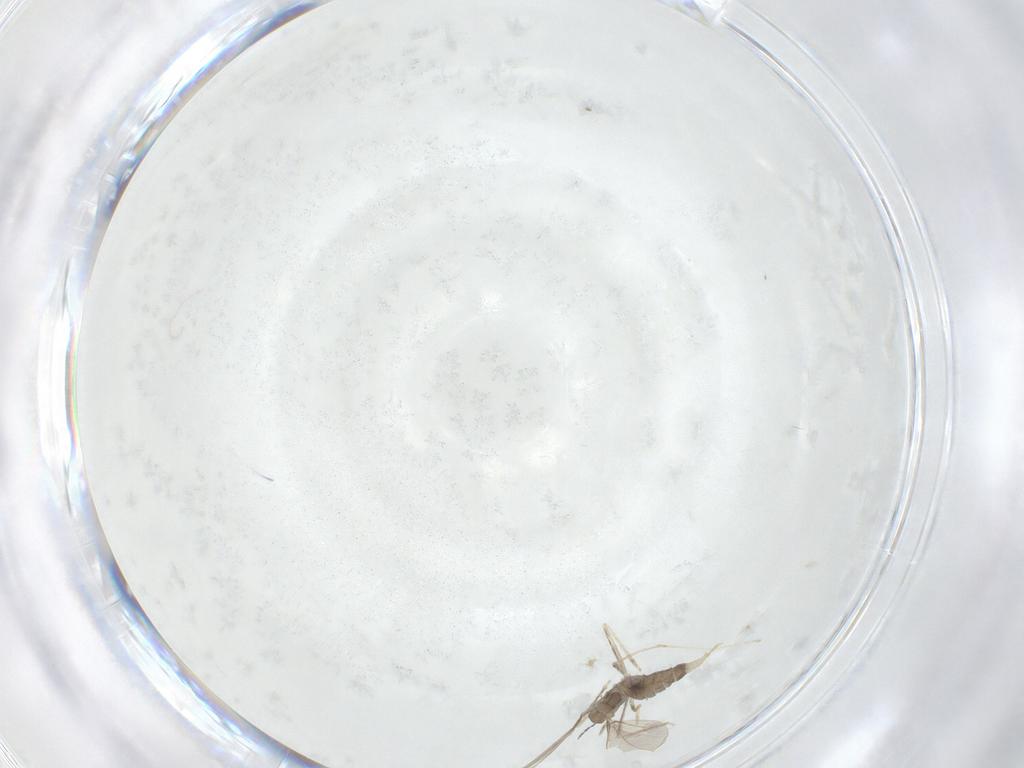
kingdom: Animalia
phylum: Arthropoda
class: Insecta
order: Diptera
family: Cecidomyiidae
